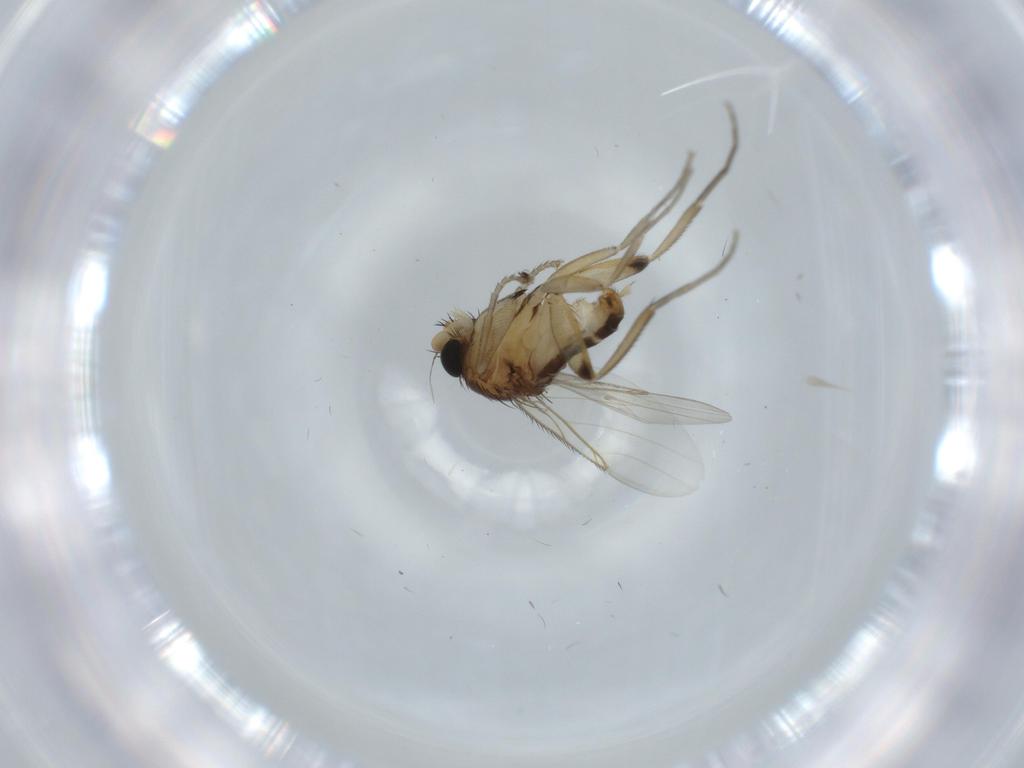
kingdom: Animalia
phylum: Arthropoda
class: Insecta
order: Diptera
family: Phoridae
